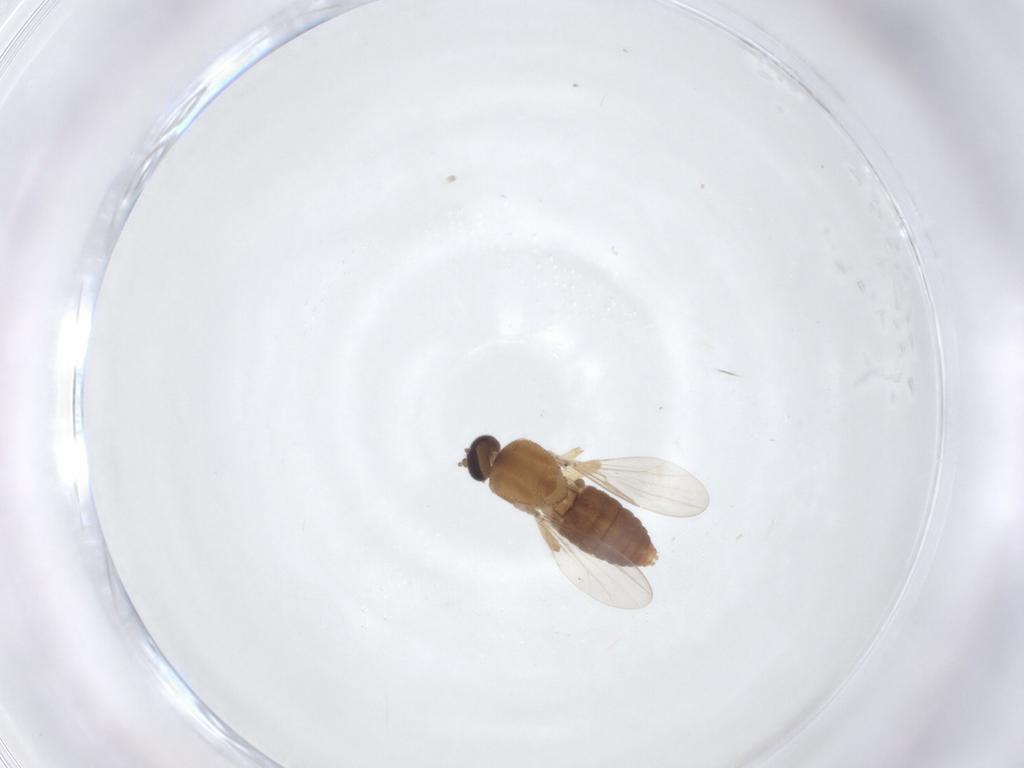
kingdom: Animalia
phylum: Arthropoda
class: Insecta
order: Diptera
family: Ceratopogonidae
